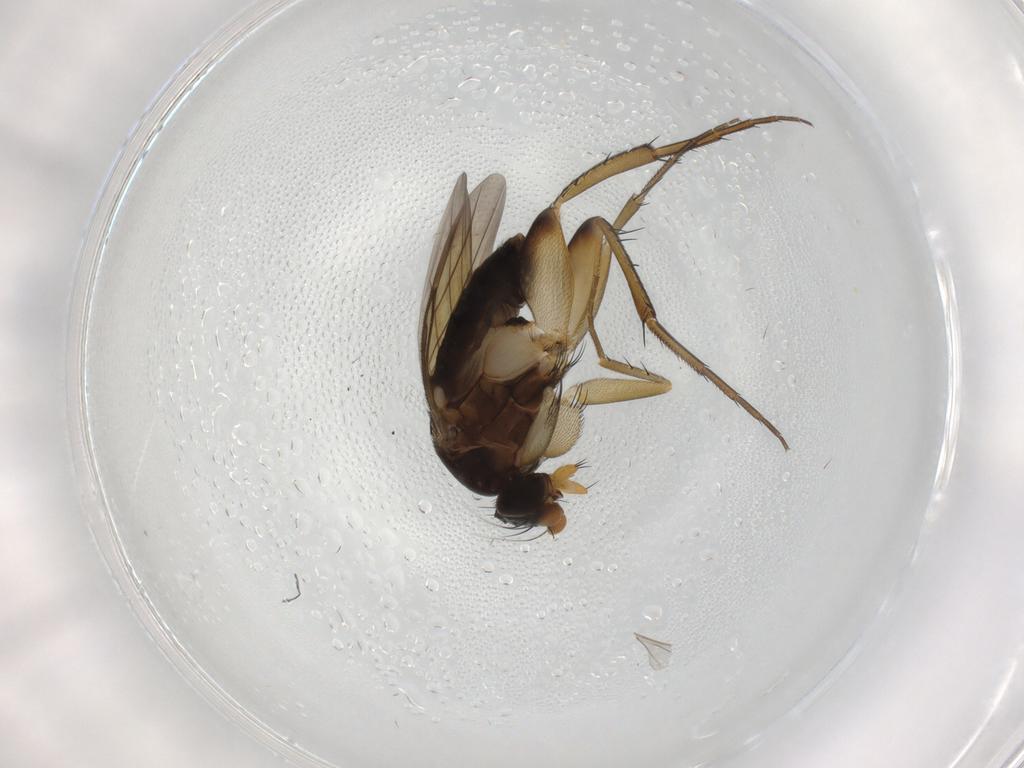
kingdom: Animalia
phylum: Arthropoda
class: Insecta
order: Diptera
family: Phoridae
